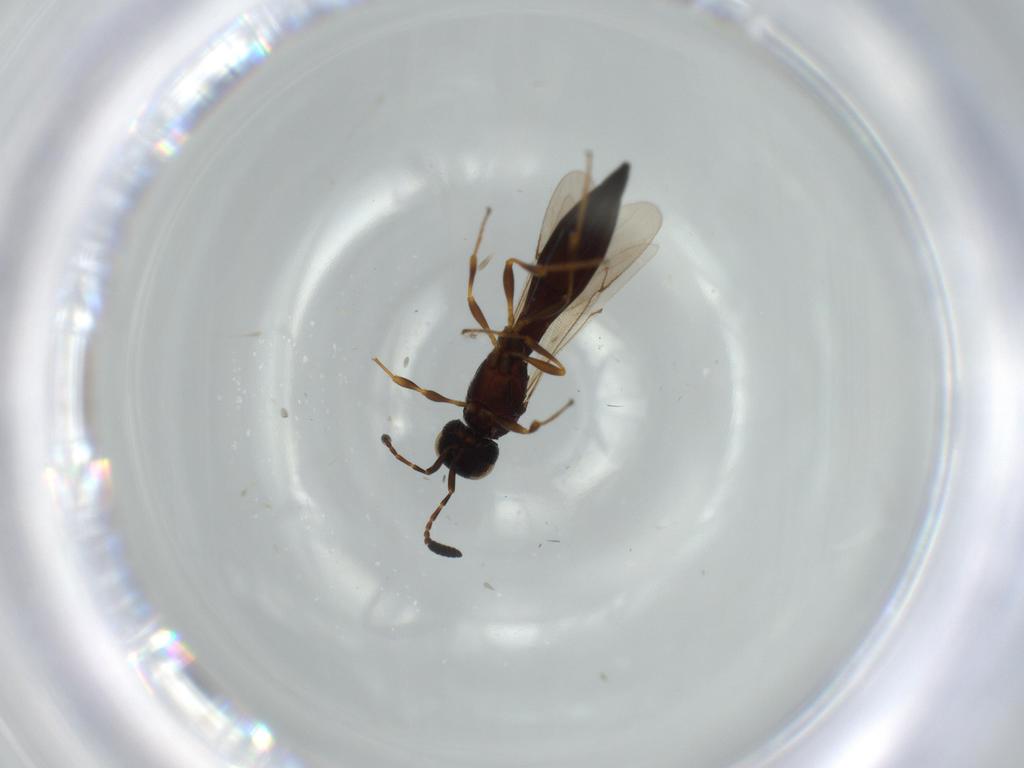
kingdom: Animalia
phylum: Arthropoda
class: Insecta
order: Hymenoptera
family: Scelionidae
